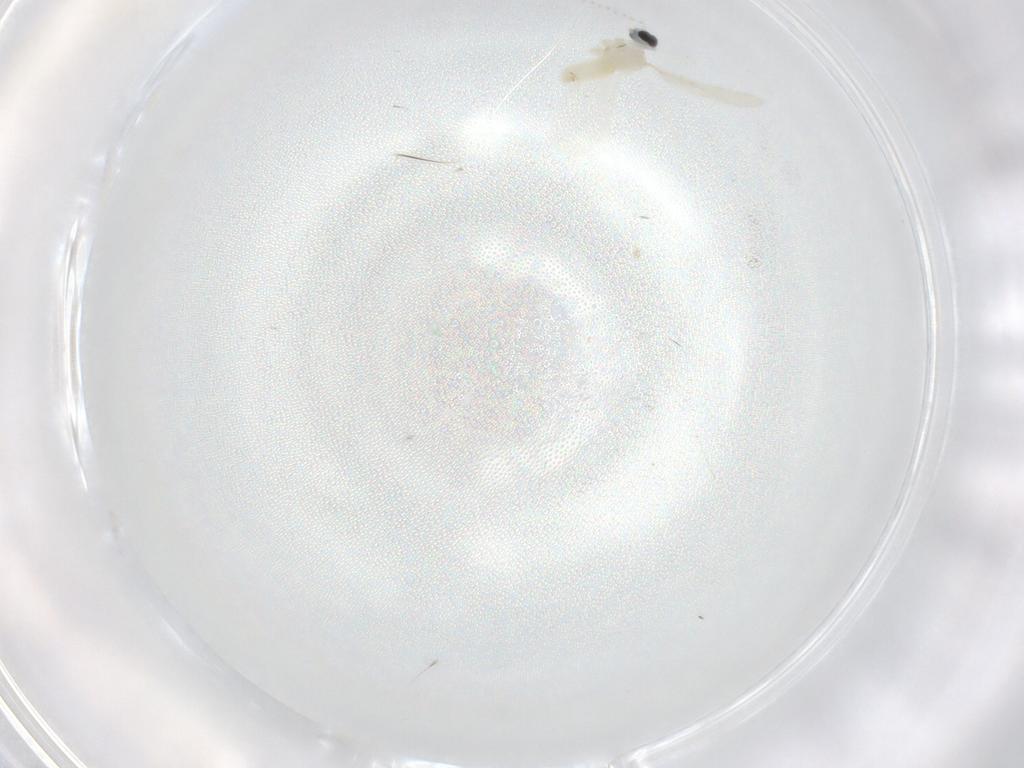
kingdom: Animalia
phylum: Arthropoda
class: Insecta
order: Diptera
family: Cecidomyiidae
